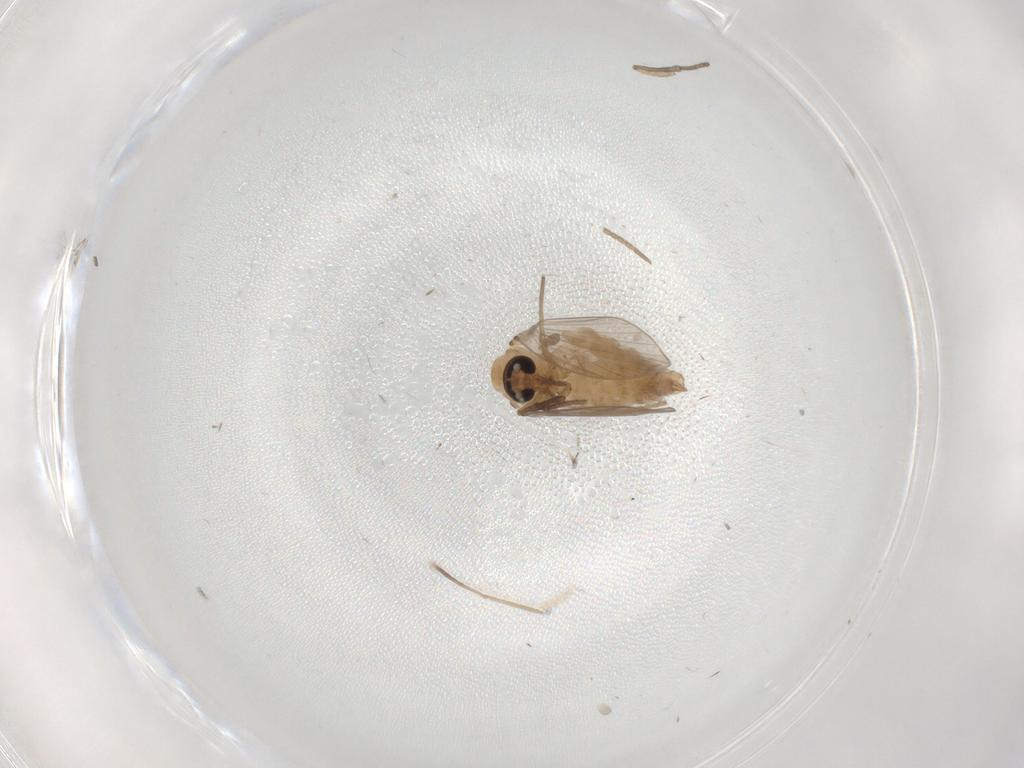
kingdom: Animalia
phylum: Arthropoda
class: Insecta
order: Diptera
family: Psychodidae
